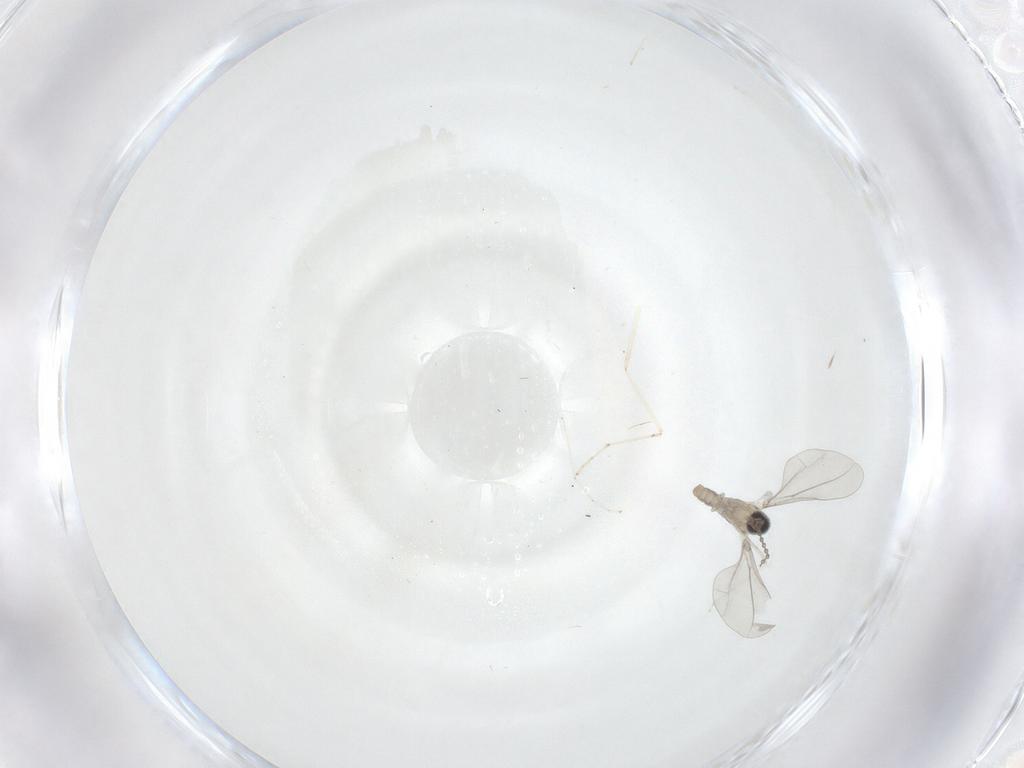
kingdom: Animalia
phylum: Arthropoda
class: Insecta
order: Diptera
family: Cecidomyiidae
